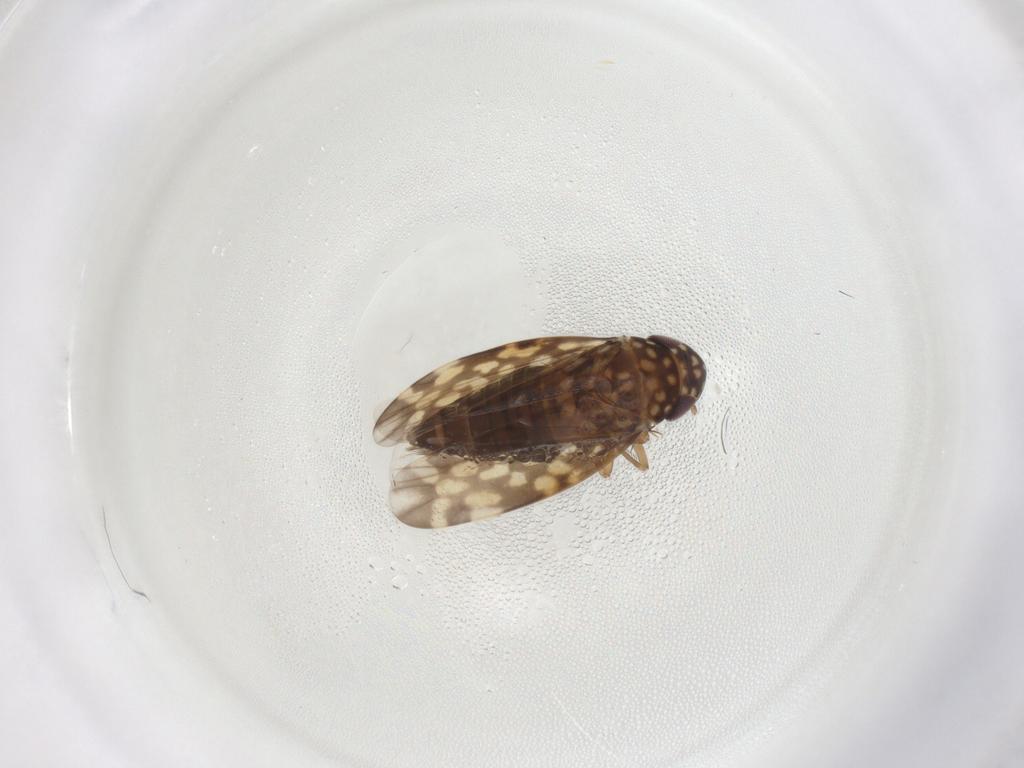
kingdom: Animalia
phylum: Arthropoda
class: Insecta
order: Hemiptera
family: Cicadellidae
